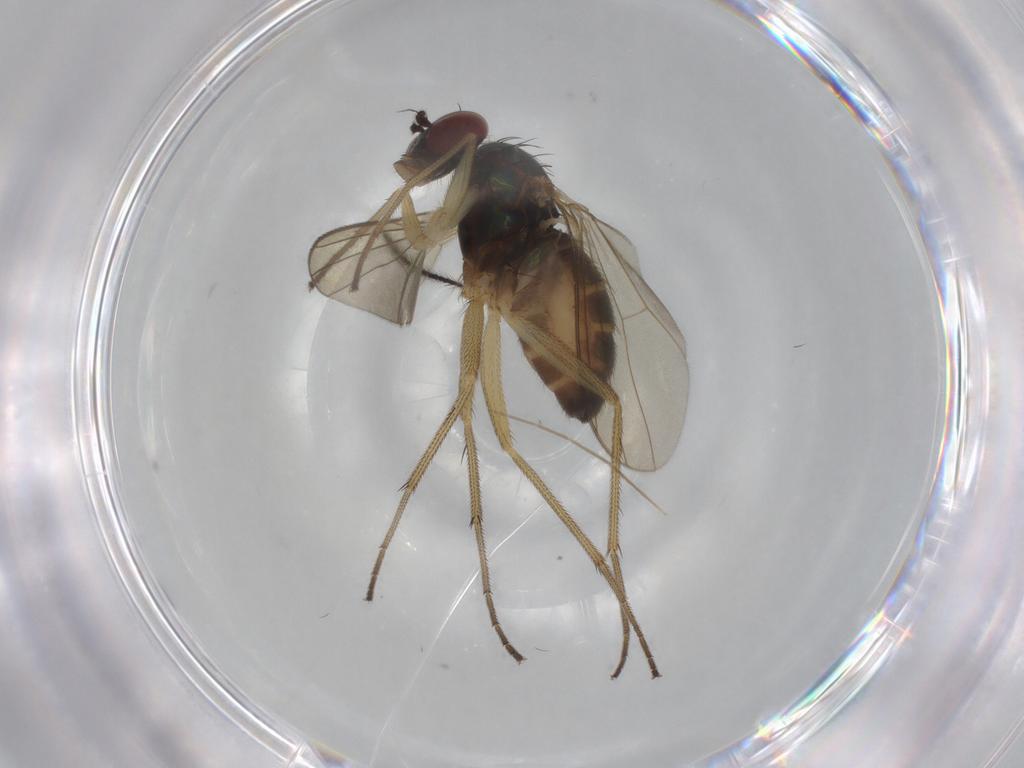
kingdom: Animalia
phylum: Arthropoda
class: Insecta
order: Diptera
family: Dolichopodidae
